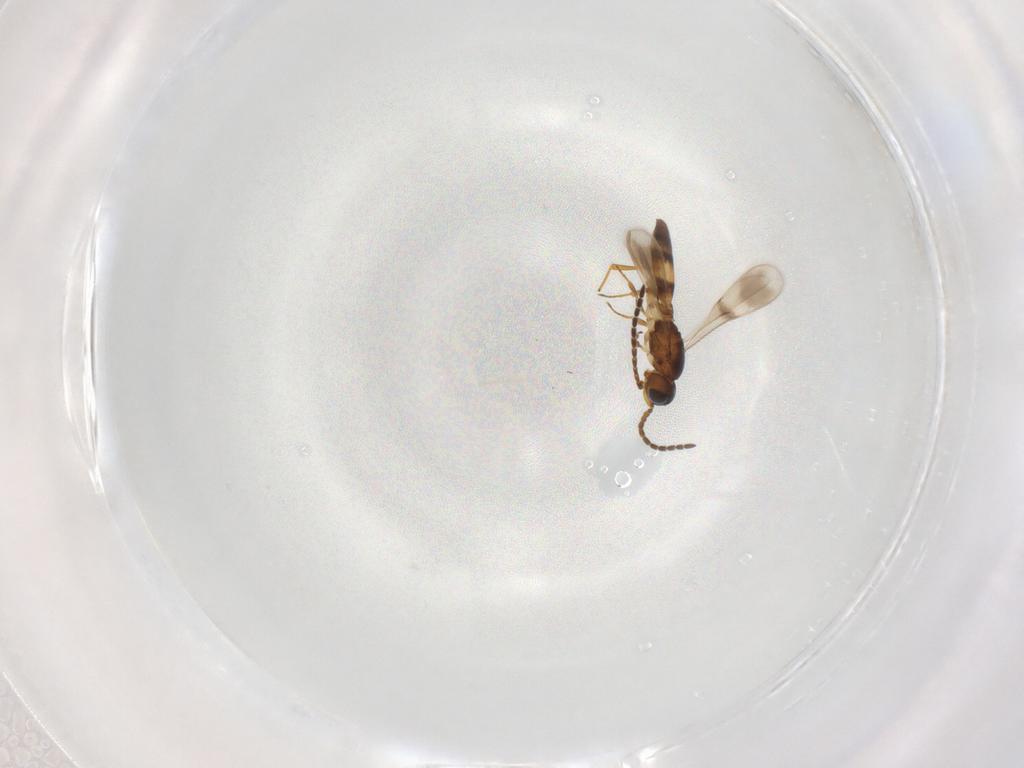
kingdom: Animalia
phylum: Arthropoda
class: Insecta
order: Hymenoptera
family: Scelionidae
